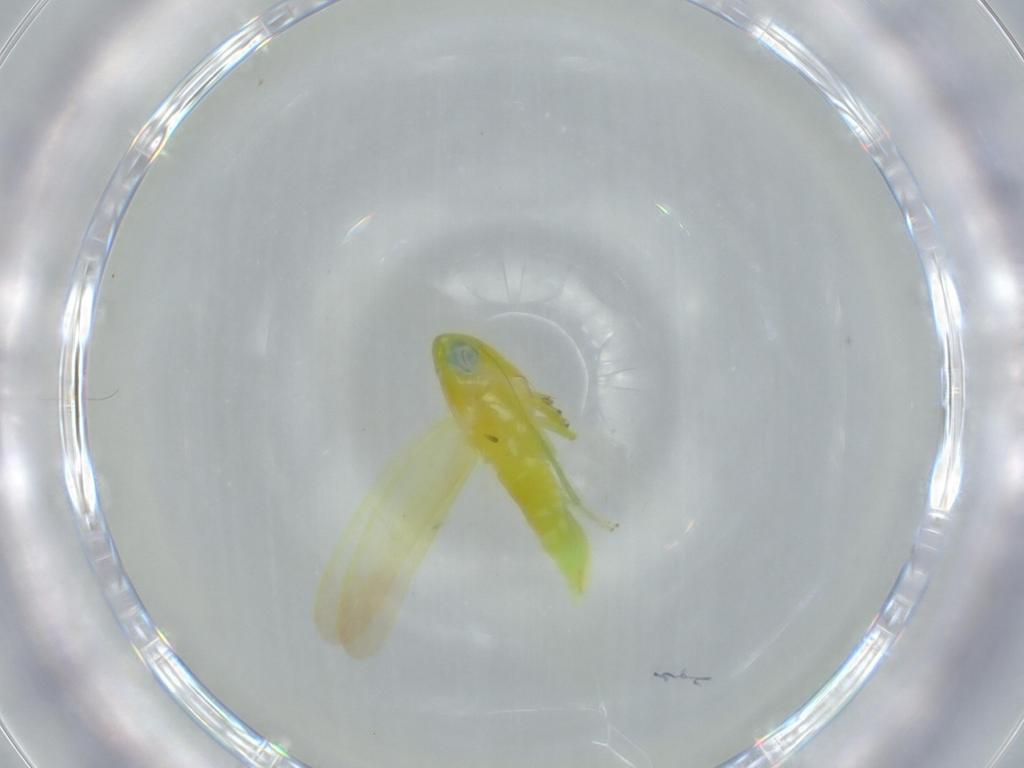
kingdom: Animalia
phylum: Arthropoda
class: Insecta
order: Hemiptera
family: Cicadellidae
